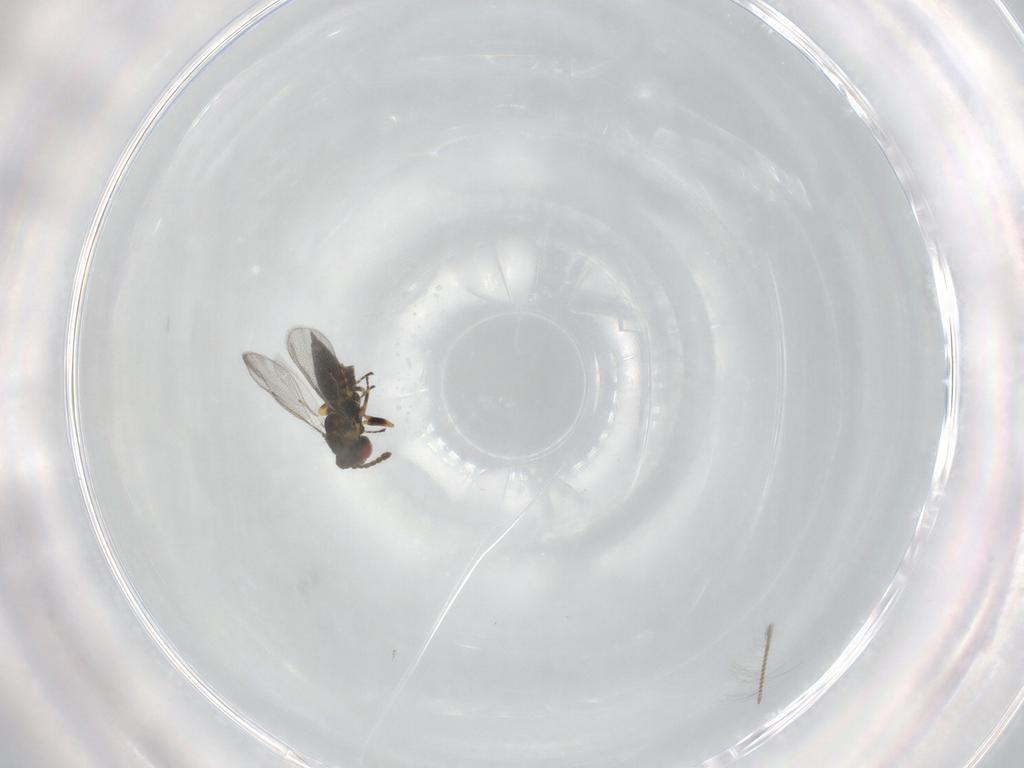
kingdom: Animalia
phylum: Arthropoda
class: Insecta
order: Hymenoptera
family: Eulophidae
